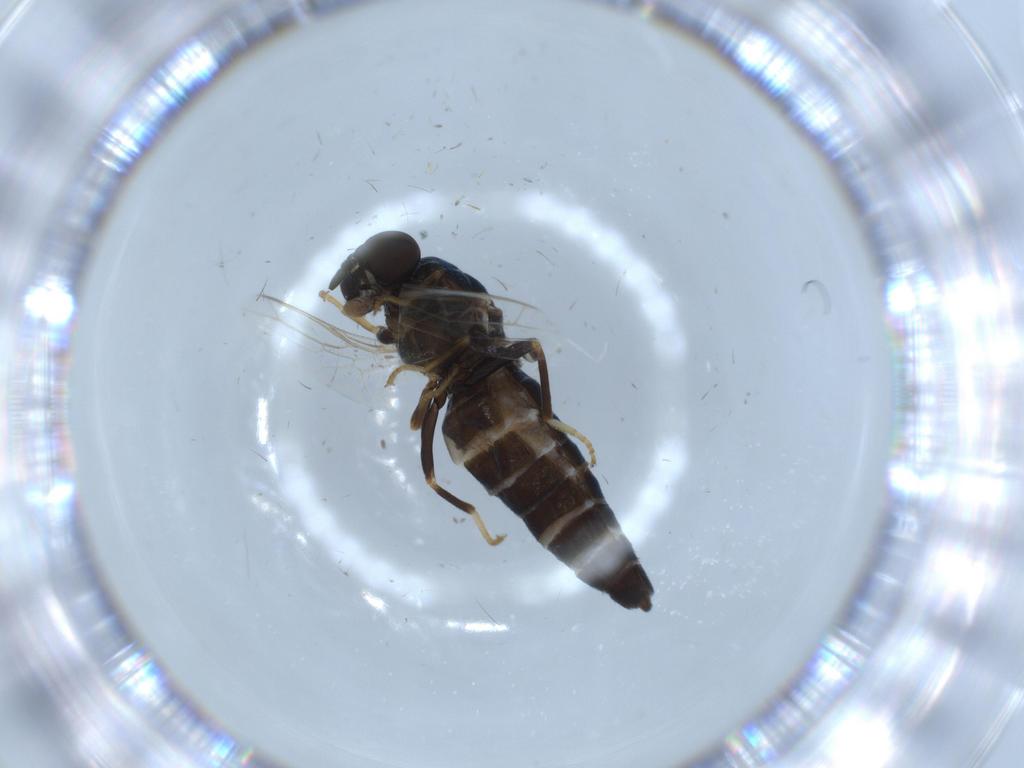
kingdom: Animalia
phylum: Arthropoda
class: Insecta
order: Diptera
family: Scenopinidae
